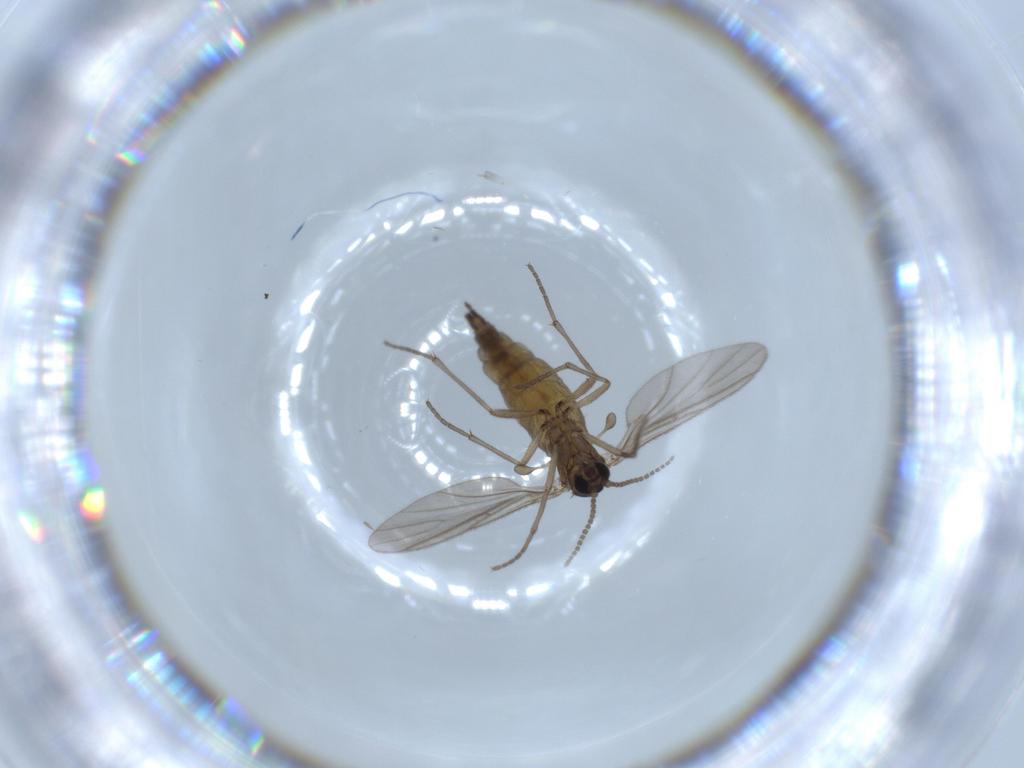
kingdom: Animalia
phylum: Arthropoda
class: Insecta
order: Diptera
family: Sciaridae
